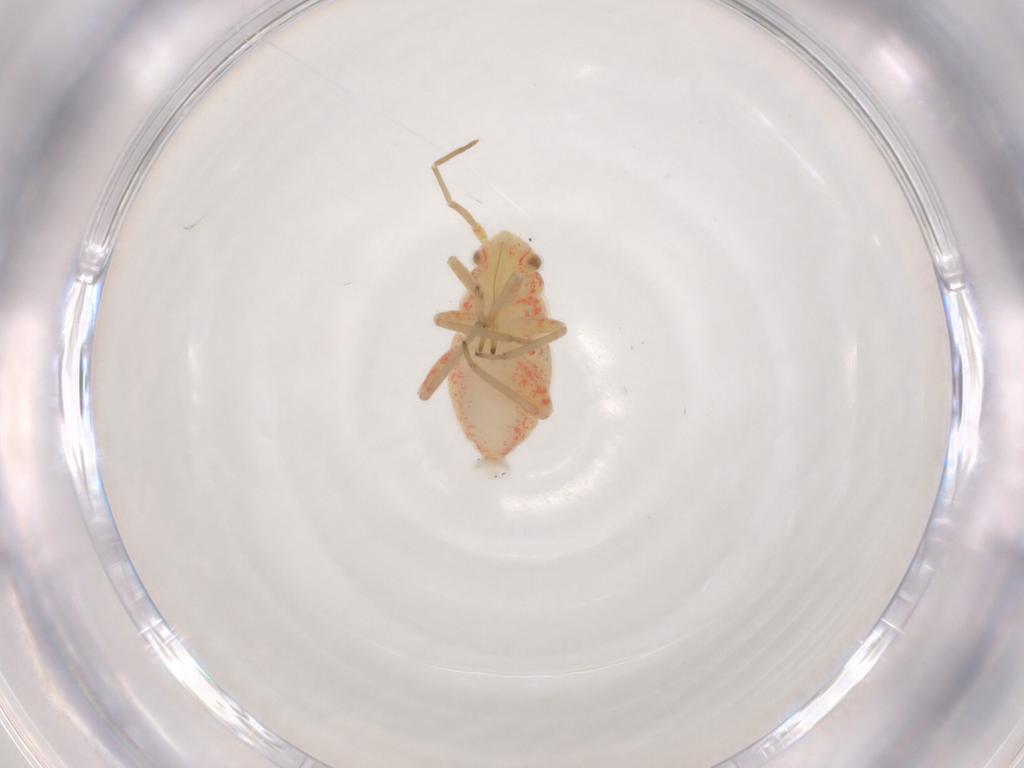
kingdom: Animalia
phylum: Arthropoda
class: Insecta
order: Hemiptera
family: Miridae
